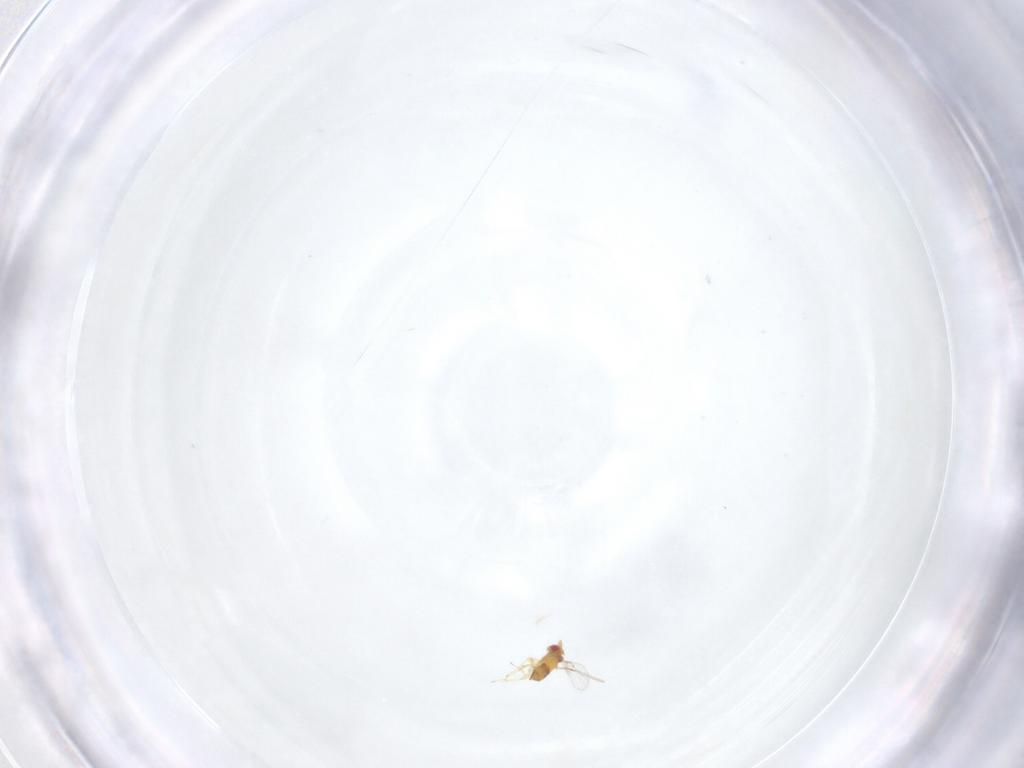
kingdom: Animalia
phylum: Arthropoda
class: Insecta
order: Hymenoptera
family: Trichogrammatidae
